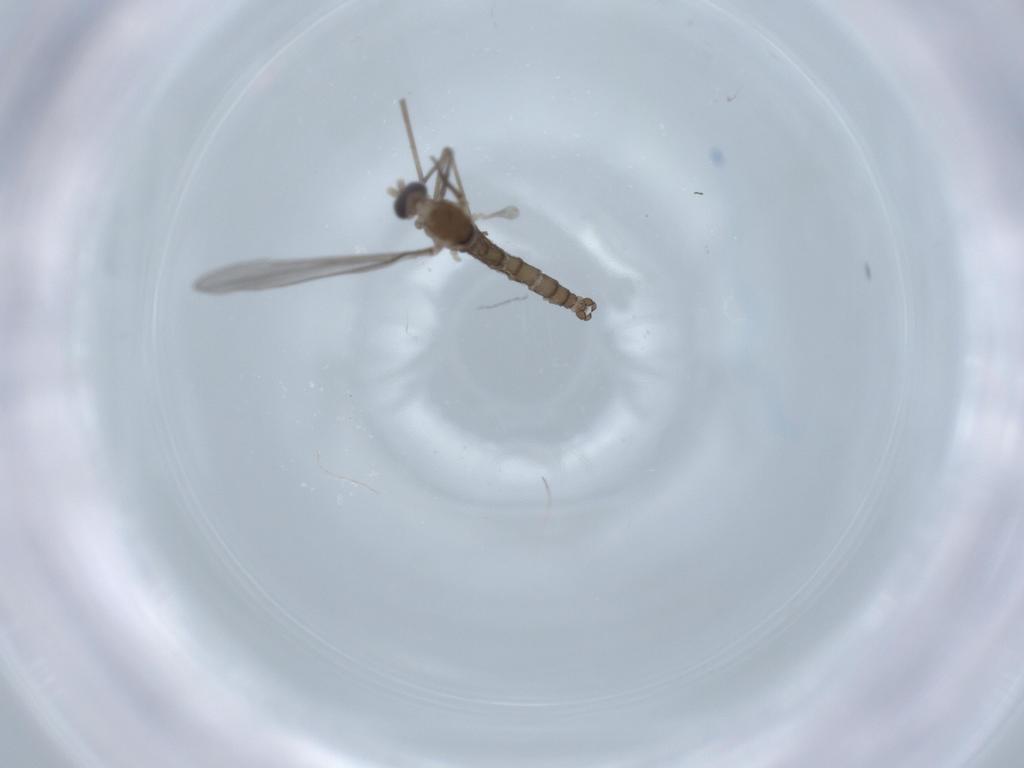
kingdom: Animalia
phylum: Arthropoda
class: Insecta
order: Diptera
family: Cecidomyiidae
